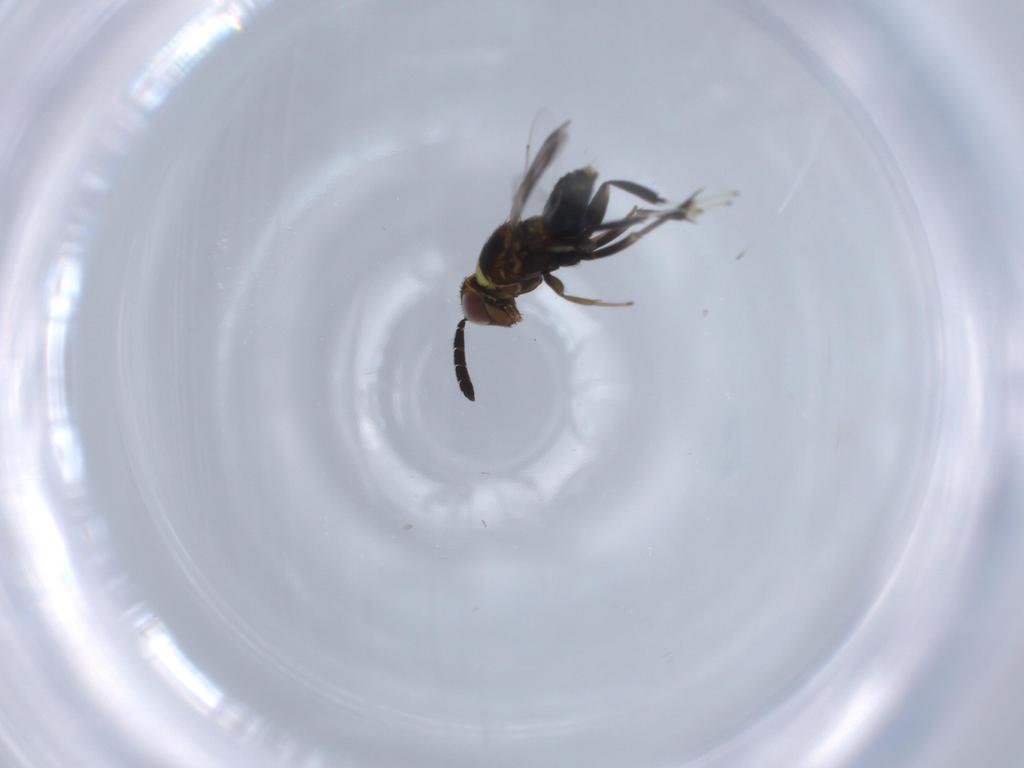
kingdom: Animalia
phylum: Arthropoda
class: Insecta
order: Hymenoptera
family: Aphelinidae
